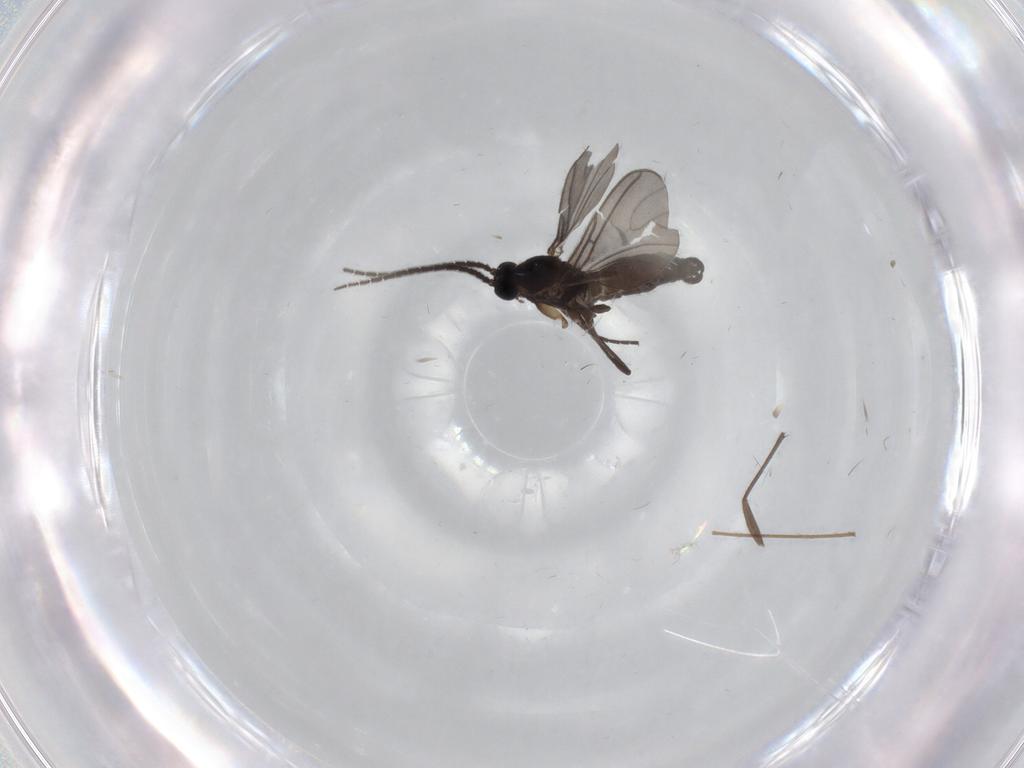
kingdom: Animalia
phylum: Arthropoda
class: Insecta
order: Diptera
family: Sciaridae
